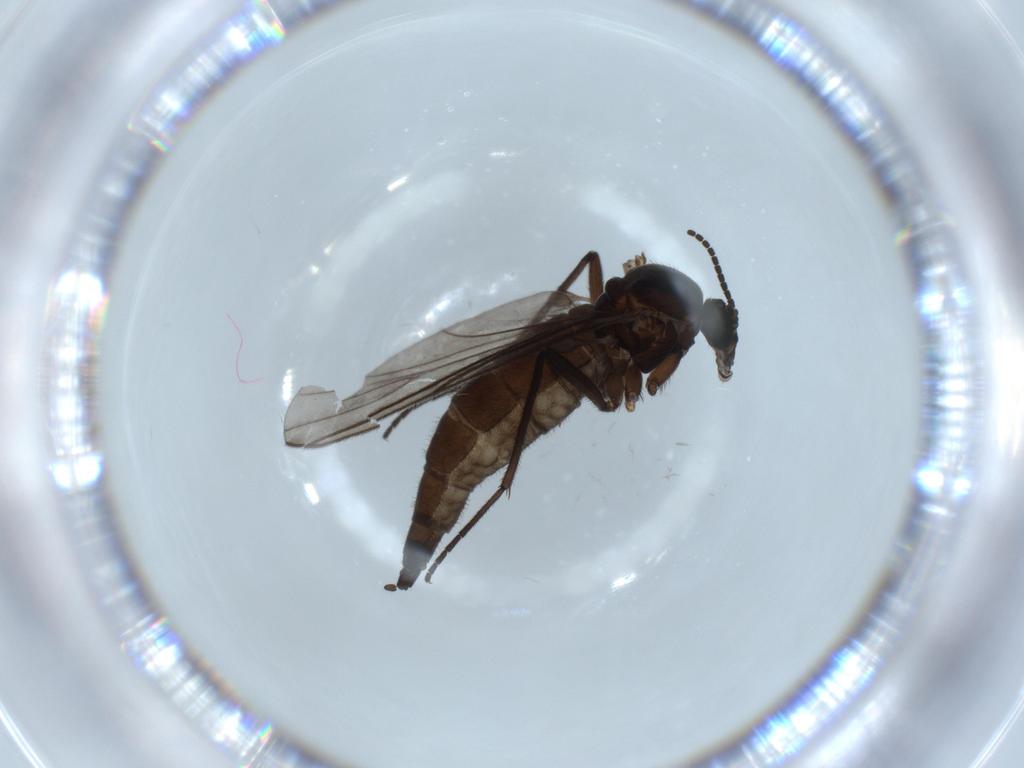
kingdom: Animalia
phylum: Arthropoda
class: Insecta
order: Diptera
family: Sciaridae
